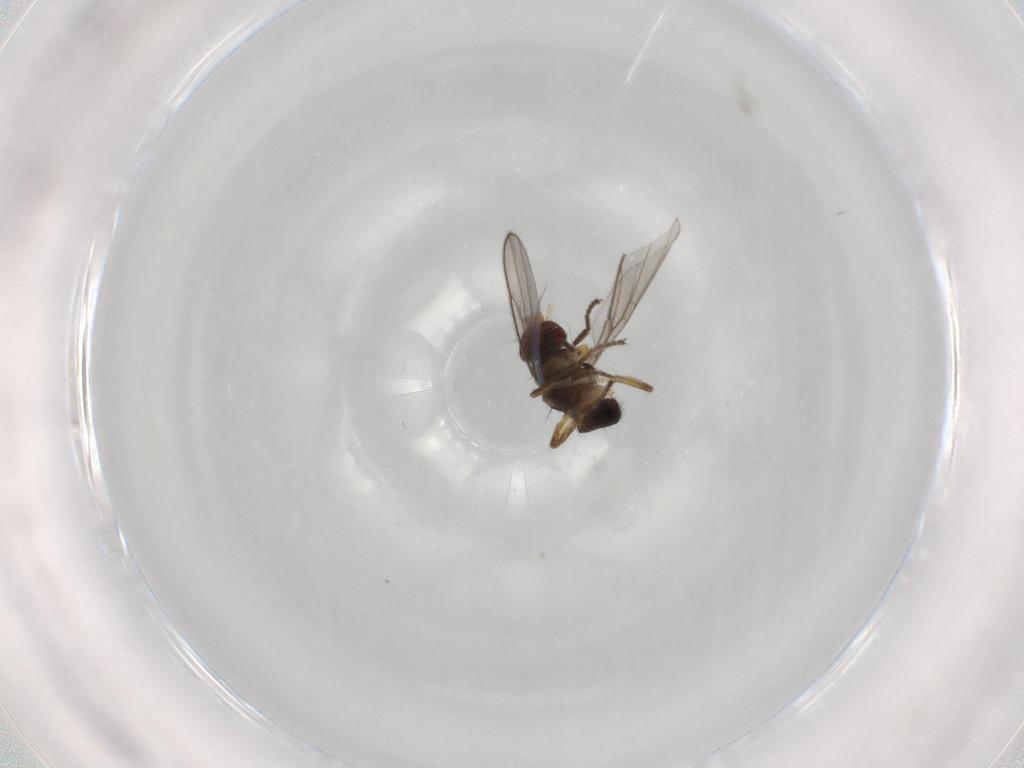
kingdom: Animalia
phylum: Arthropoda
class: Insecta
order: Diptera
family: Chloropidae
